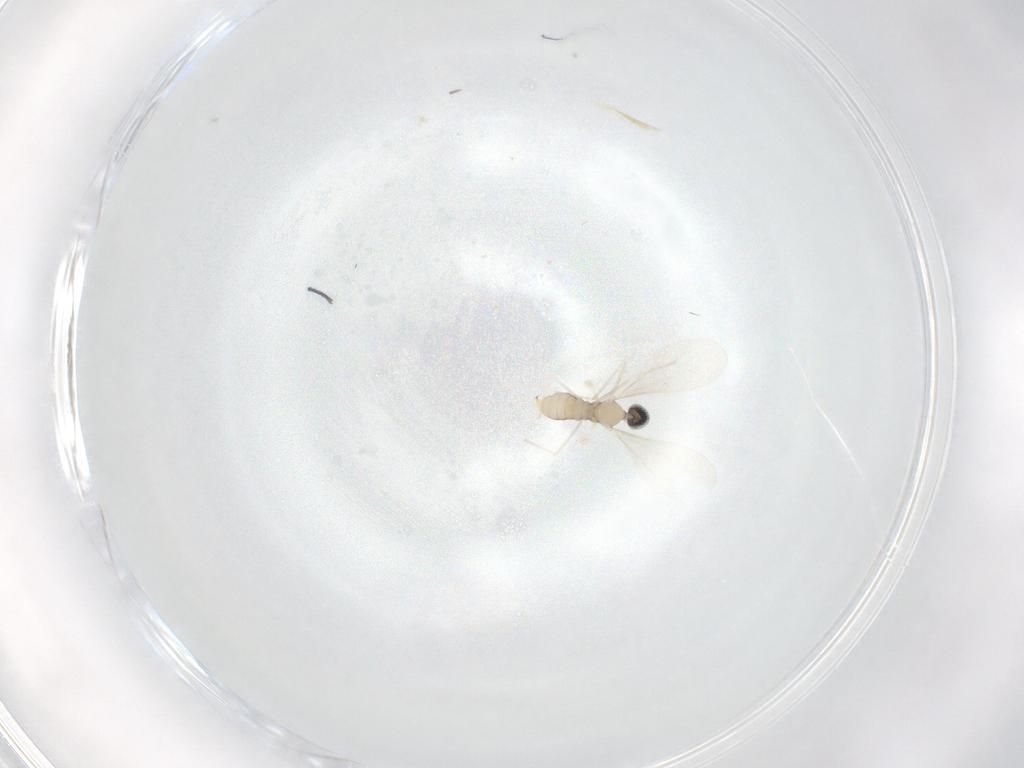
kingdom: Animalia
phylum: Arthropoda
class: Insecta
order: Diptera
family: Cecidomyiidae
